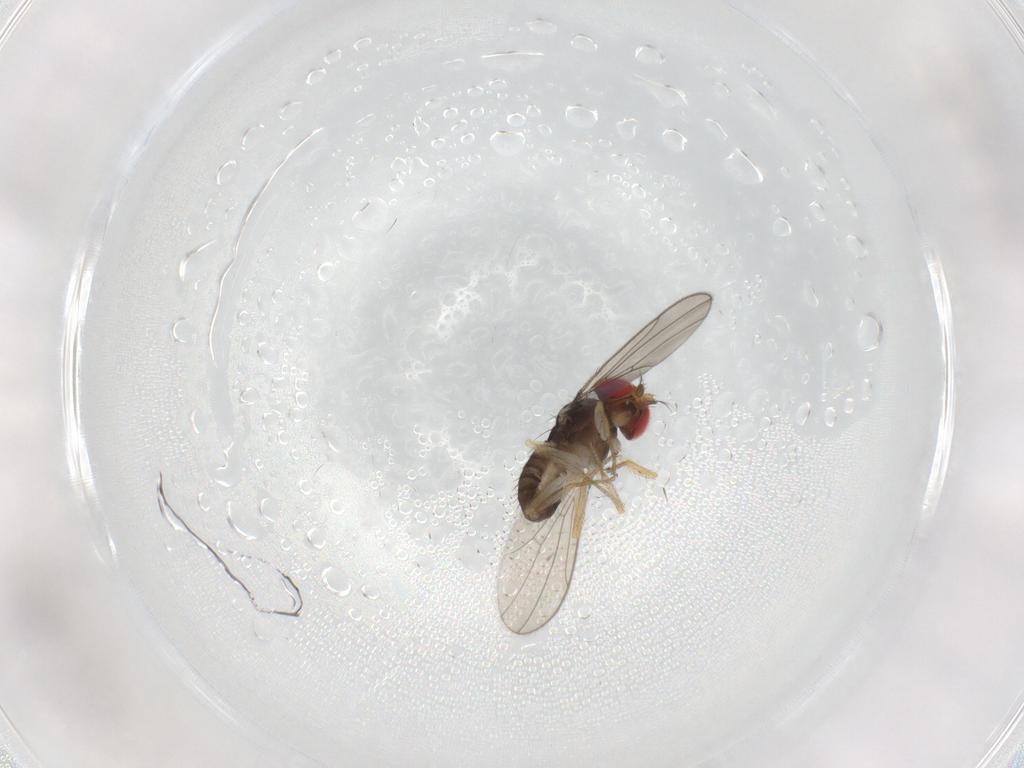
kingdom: Animalia
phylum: Arthropoda
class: Insecta
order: Diptera
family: Drosophilidae
